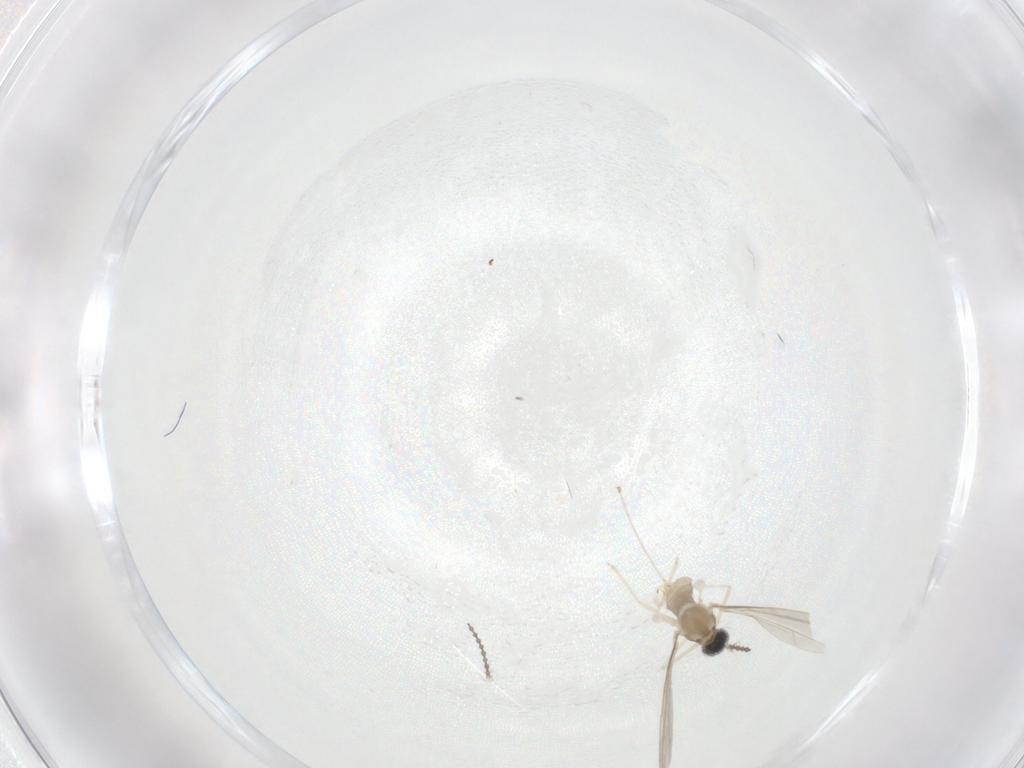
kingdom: Animalia
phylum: Arthropoda
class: Insecta
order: Diptera
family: Cecidomyiidae
